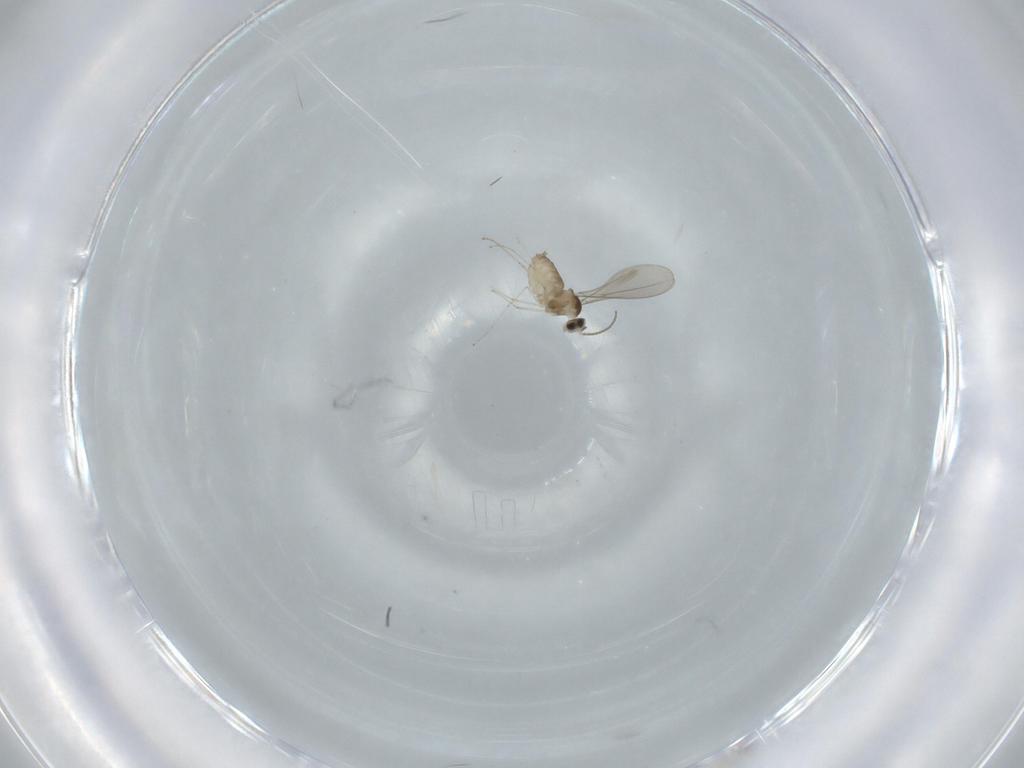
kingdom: Animalia
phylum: Arthropoda
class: Insecta
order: Diptera
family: Cecidomyiidae
